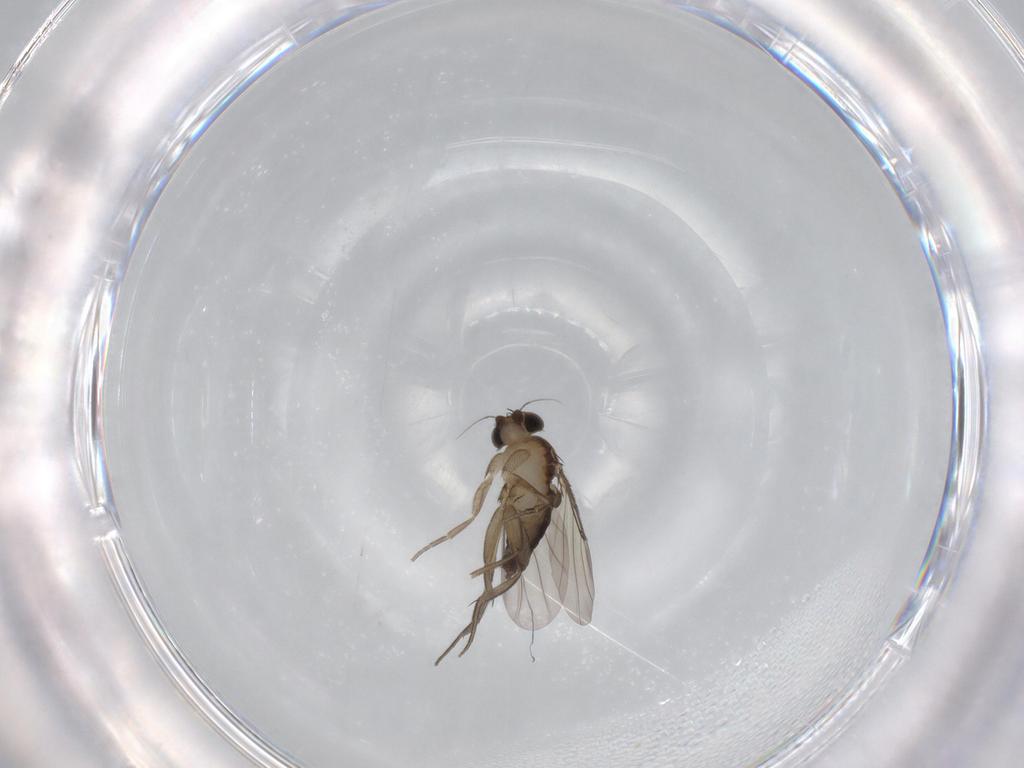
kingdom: Animalia
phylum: Arthropoda
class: Insecta
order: Diptera
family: Phoridae
